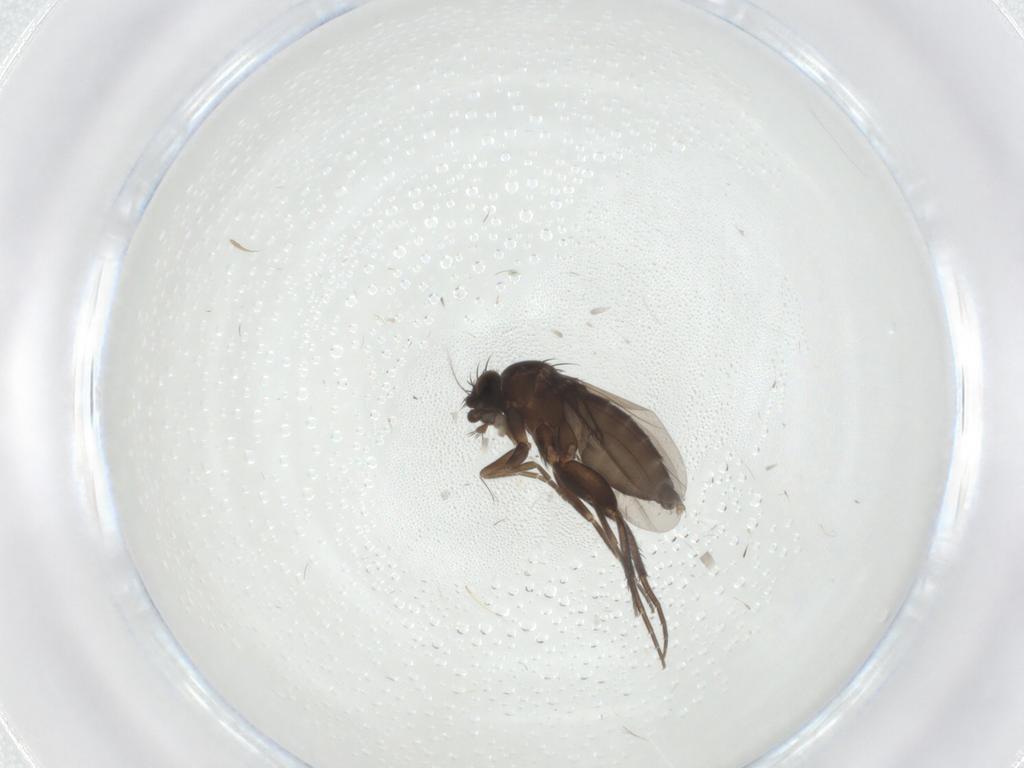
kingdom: Animalia
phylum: Arthropoda
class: Insecta
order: Diptera
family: Phoridae
